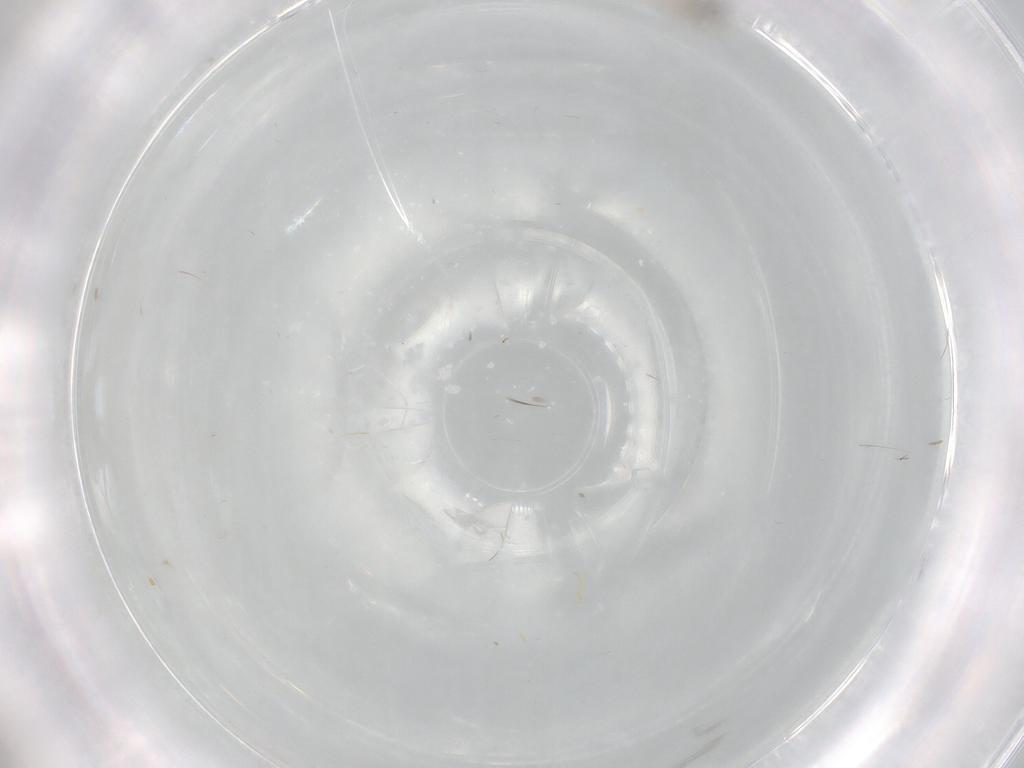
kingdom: Animalia
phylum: Arthropoda
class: Insecta
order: Diptera
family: Cecidomyiidae
